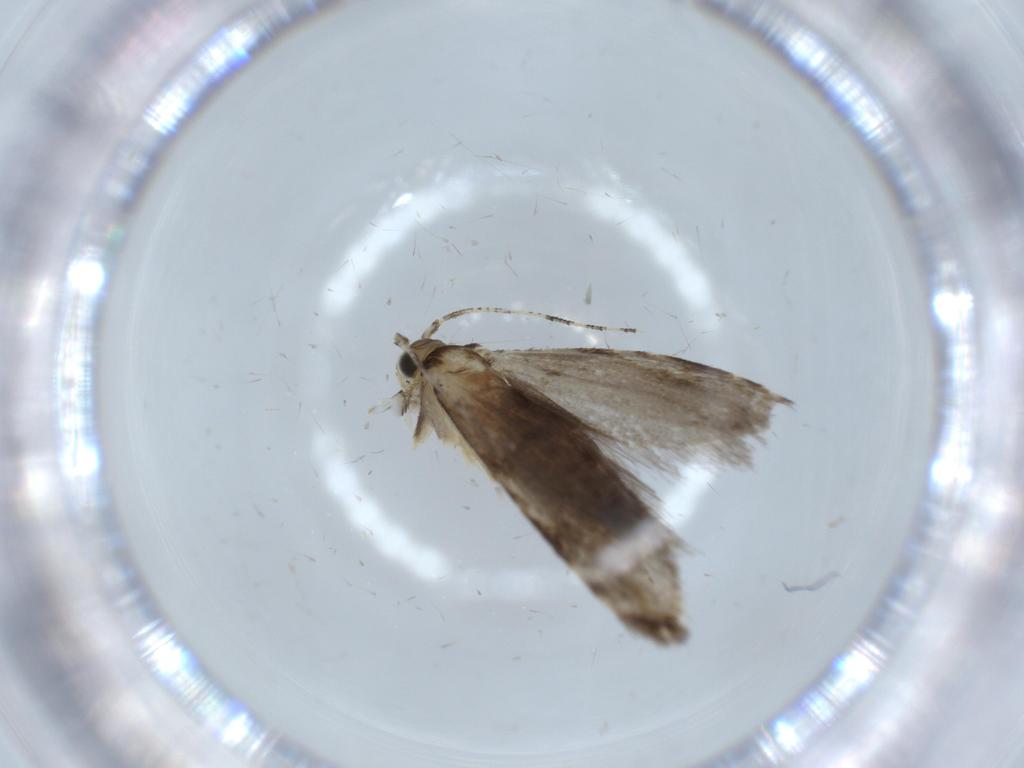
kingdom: Animalia
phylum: Arthropoda
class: Insecta
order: Lepidoptera
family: Tineidae
